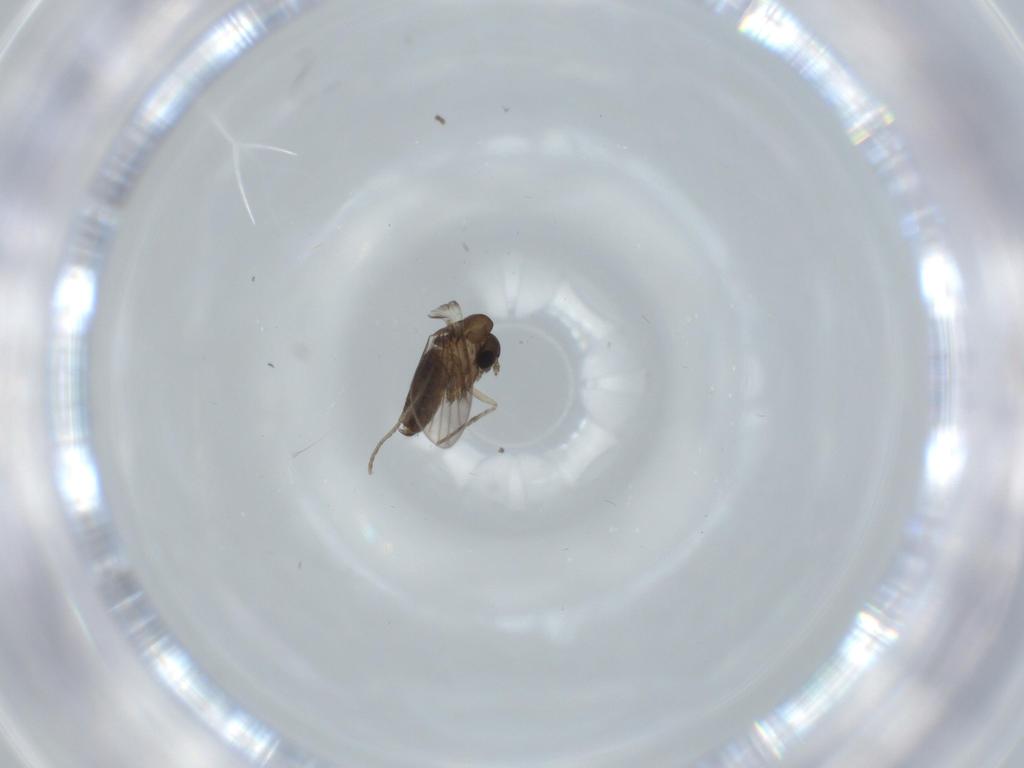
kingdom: Animalia
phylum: Arthropoda
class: Insecta
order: Diptera
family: Psychodidae
